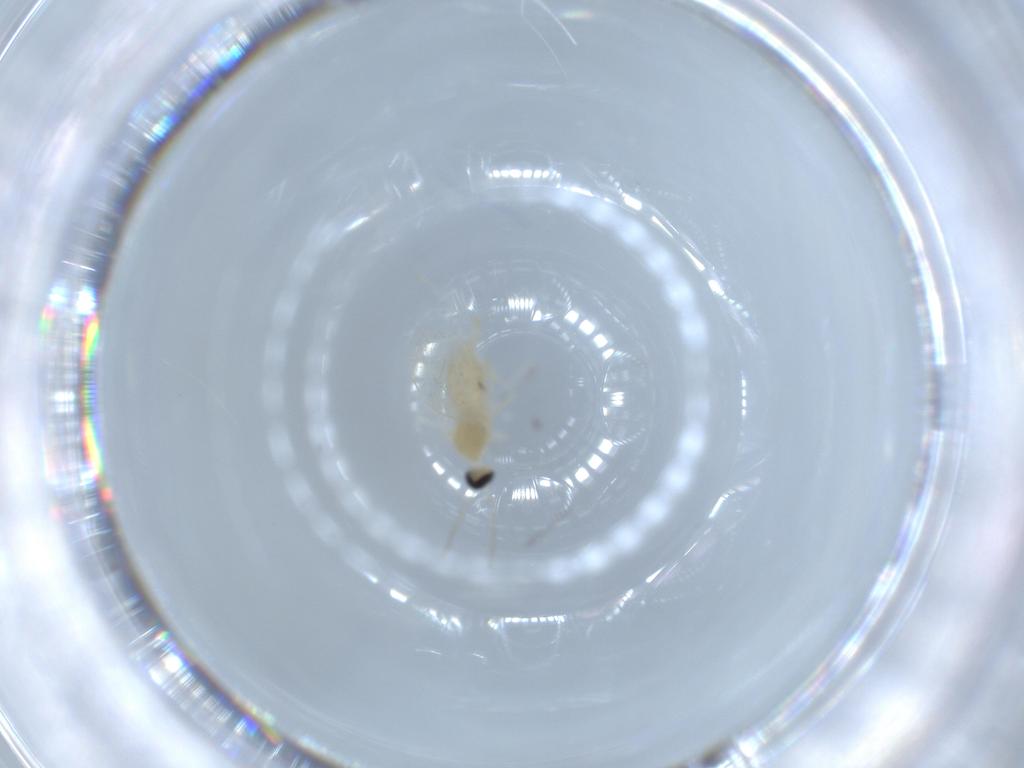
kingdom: Animalia
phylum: Arthropoda
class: Insecta
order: Diptera
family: Cecidomyiidae
